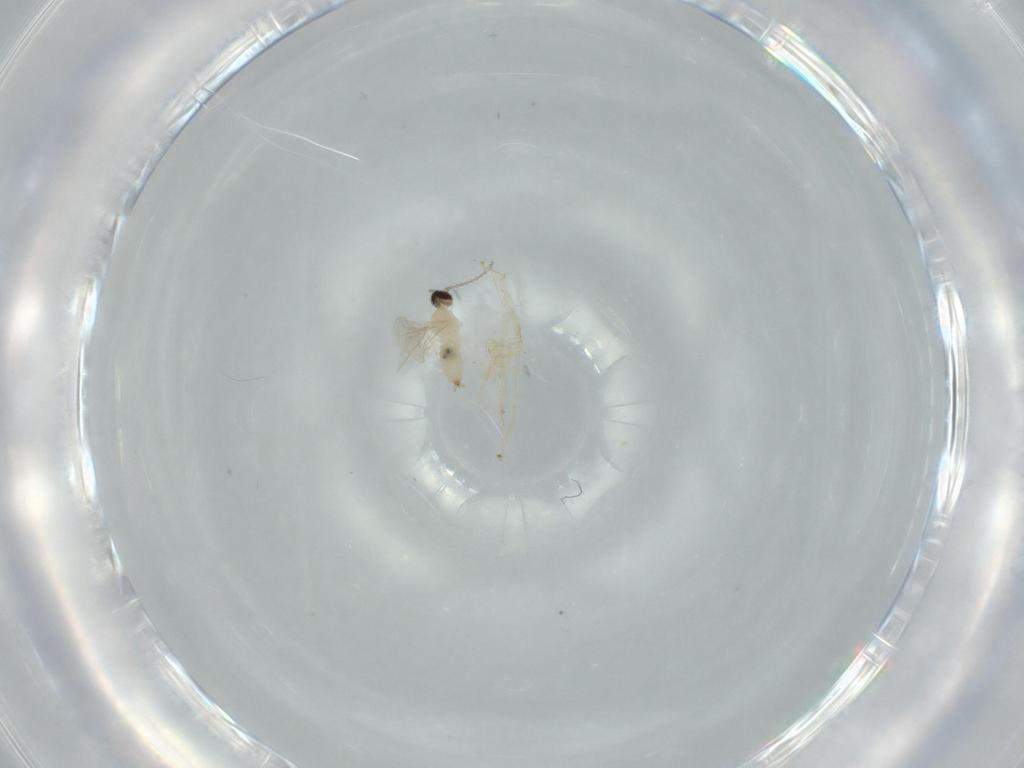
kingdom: Animalia
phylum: Arthropoda
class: Insecta
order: Diptera
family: Cecidomyiidae
